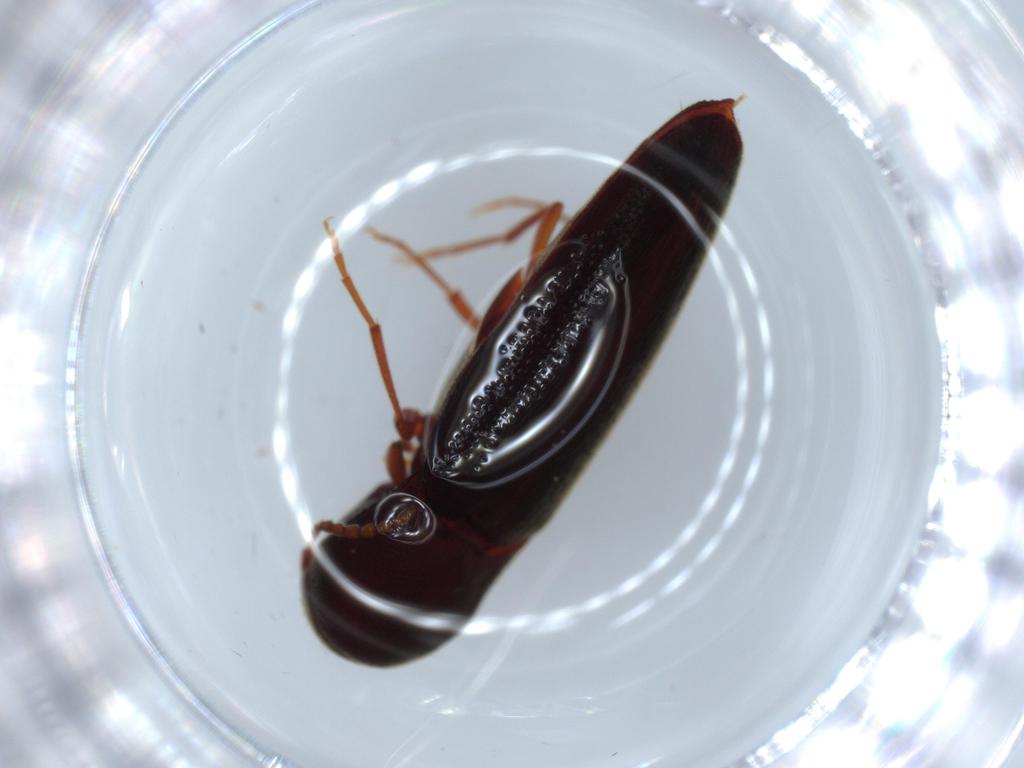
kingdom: Animalia
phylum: Arthropoda
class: Insecta
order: Coleoptera
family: Eucnemidae
